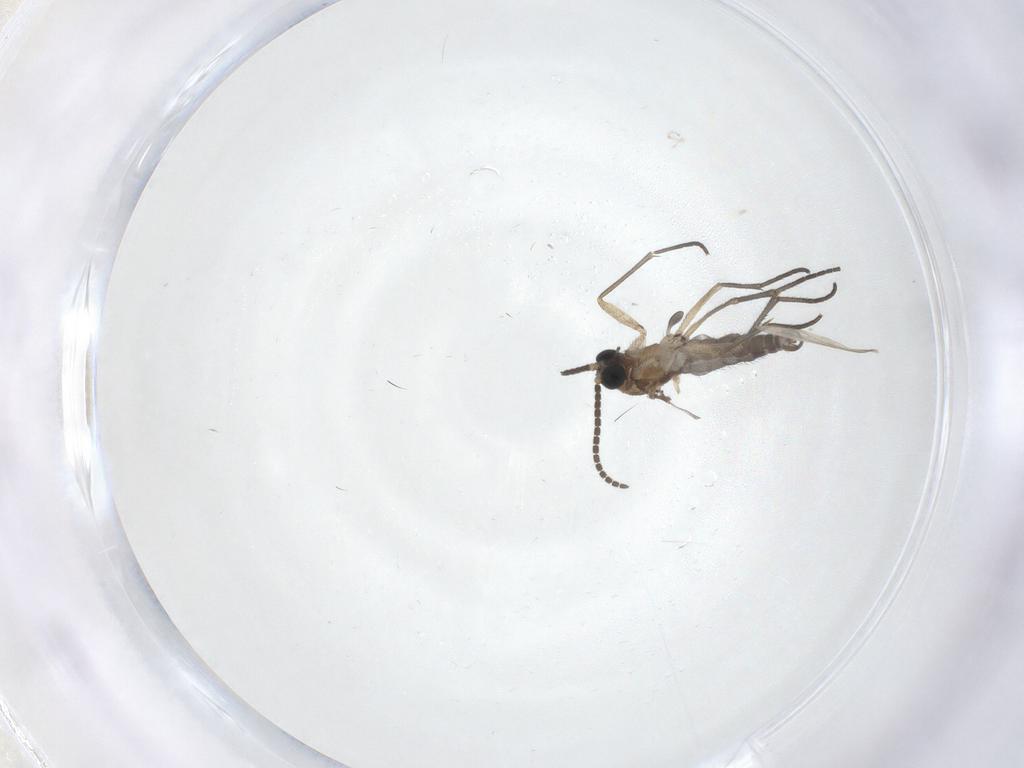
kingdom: Animalia
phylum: Arthropoda
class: Insecta
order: Diptera
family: Sciaridae
